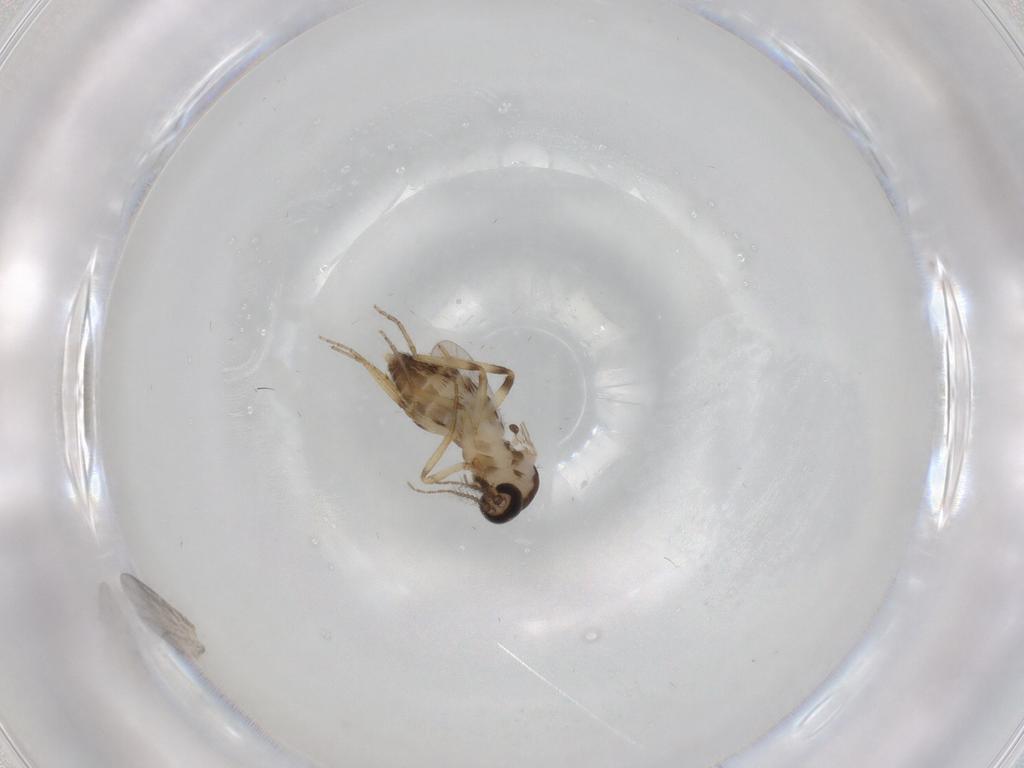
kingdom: Animalia
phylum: Arthropoda
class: Insecta
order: Diptera
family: Ceratopogonidae
